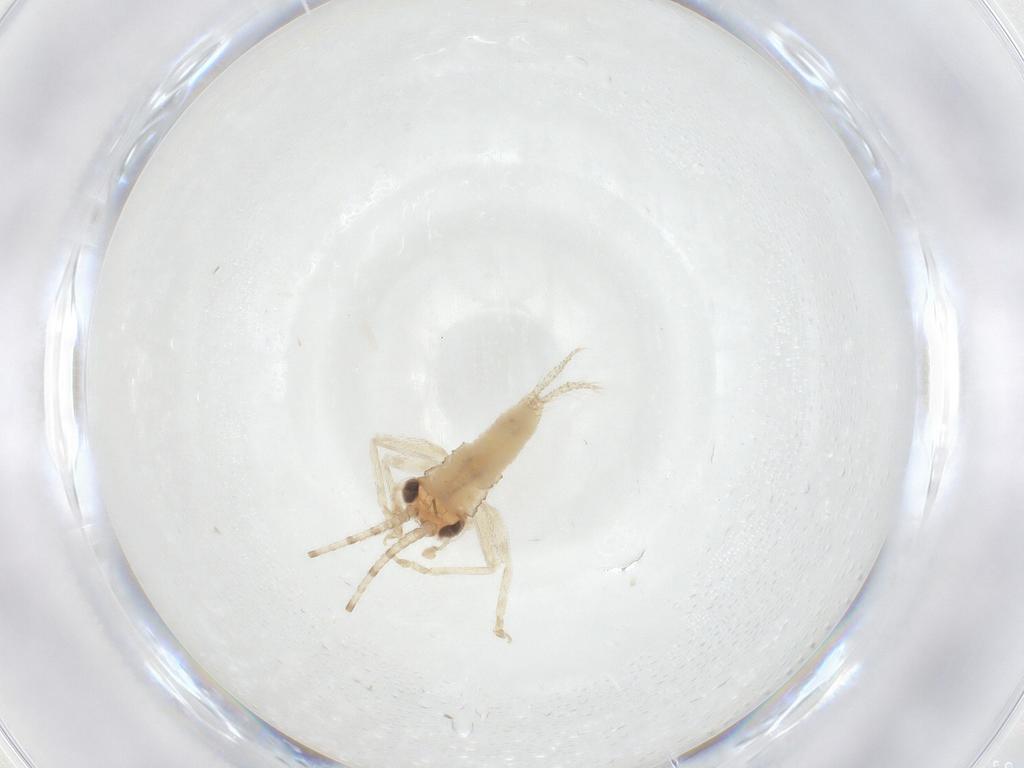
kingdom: Animalia
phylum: Arthropoda
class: Insecta
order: Orthoptera
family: Trigonidiidae
